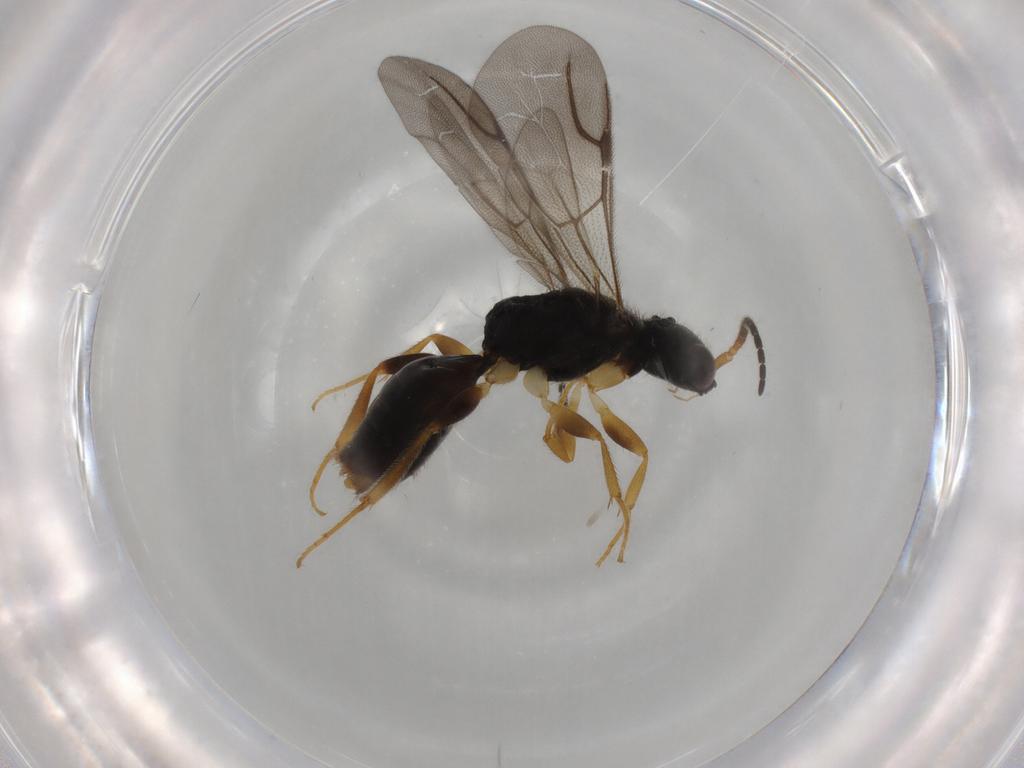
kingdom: Animalia
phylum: Arthropoda
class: Insecta
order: Hymenoptera
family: Bethylidae
